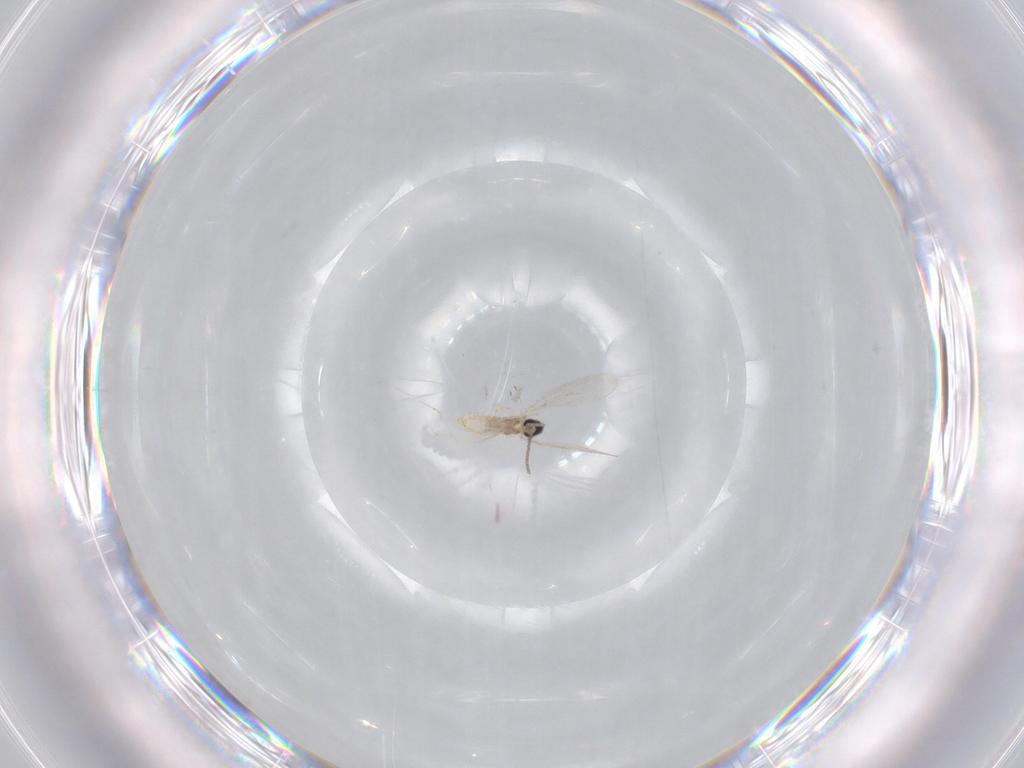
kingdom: Animalia
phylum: Arthropoda
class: Insecta
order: Diptera
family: Cecidomyiidae
